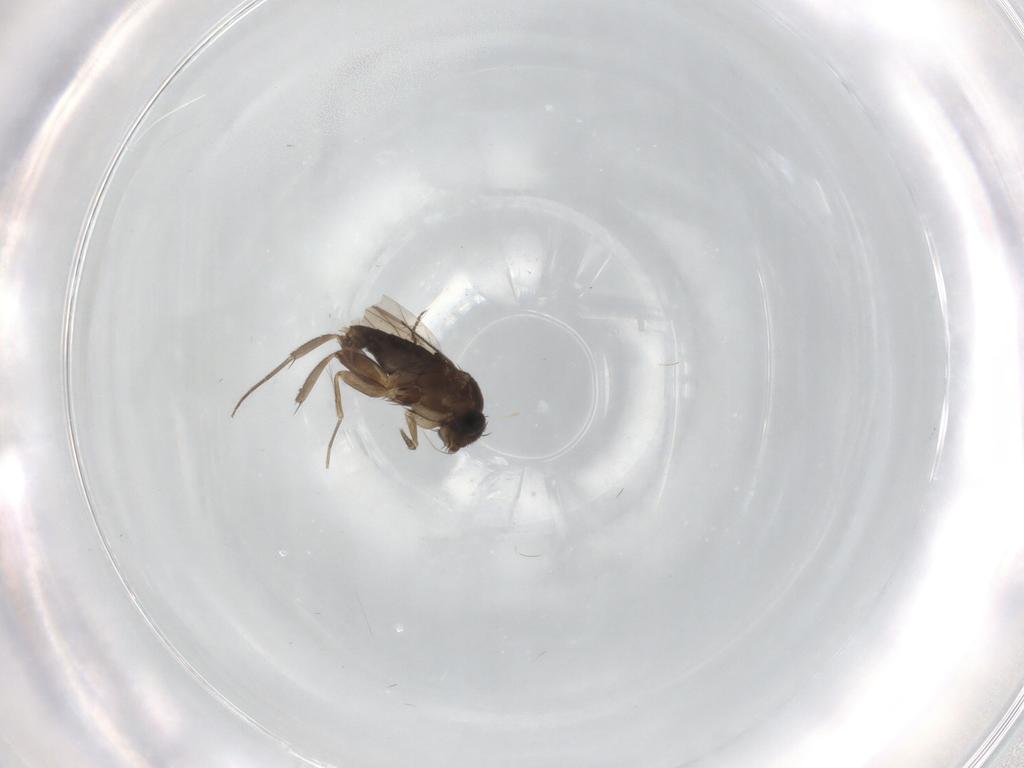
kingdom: Animalia
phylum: Arthropoda
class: Insecta
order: Diptera
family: Phoridae
